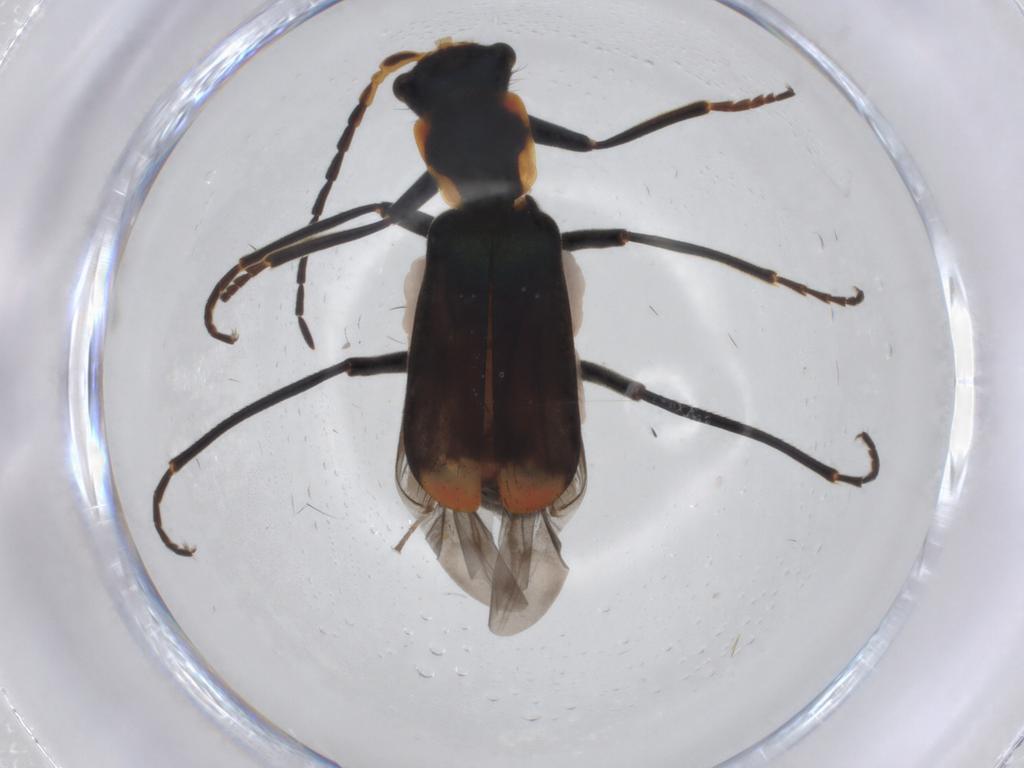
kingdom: Animalia
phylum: Arthropoda
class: Insecta
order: Coleoptera
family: Melyridae
